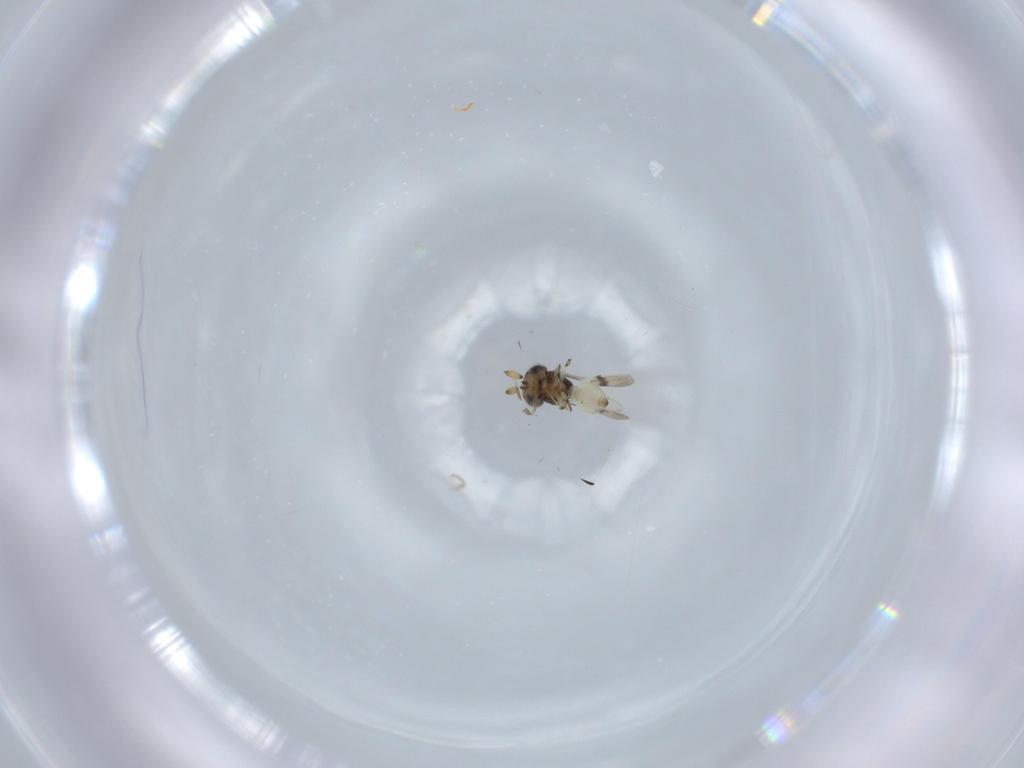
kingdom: Animalia
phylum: Arthropoda
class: Insecta
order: Hymenoptera
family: Scelionidae
